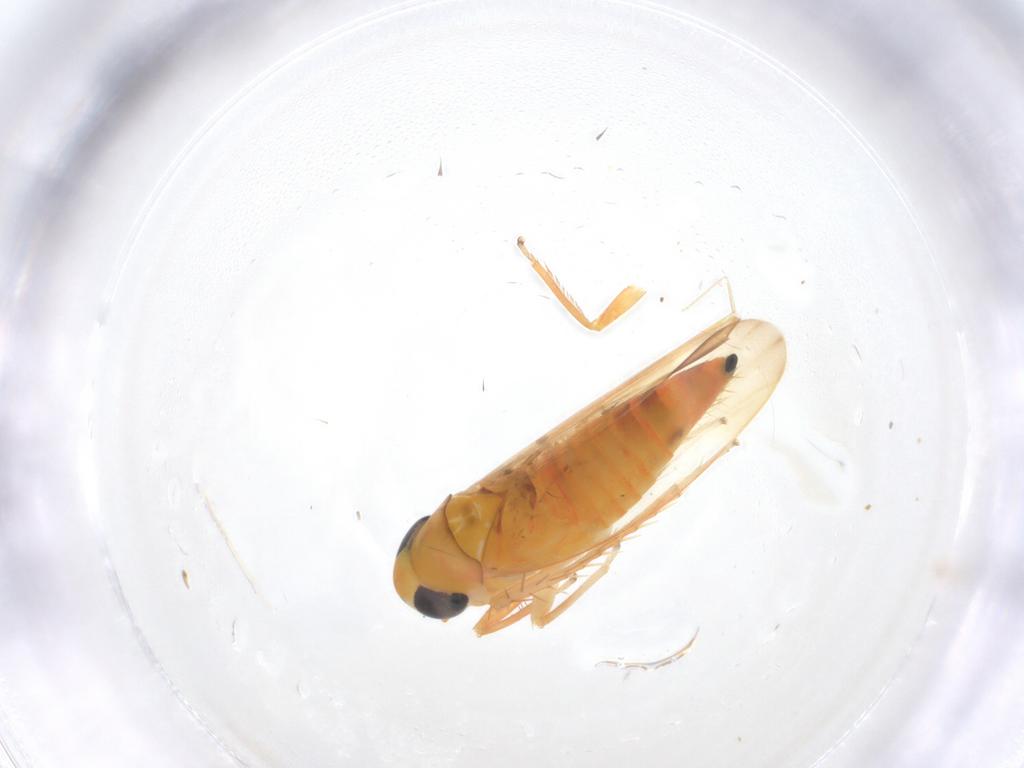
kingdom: Animalia
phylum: Arthropoda
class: Insecta
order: Hemiptera
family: Cicadellidae
